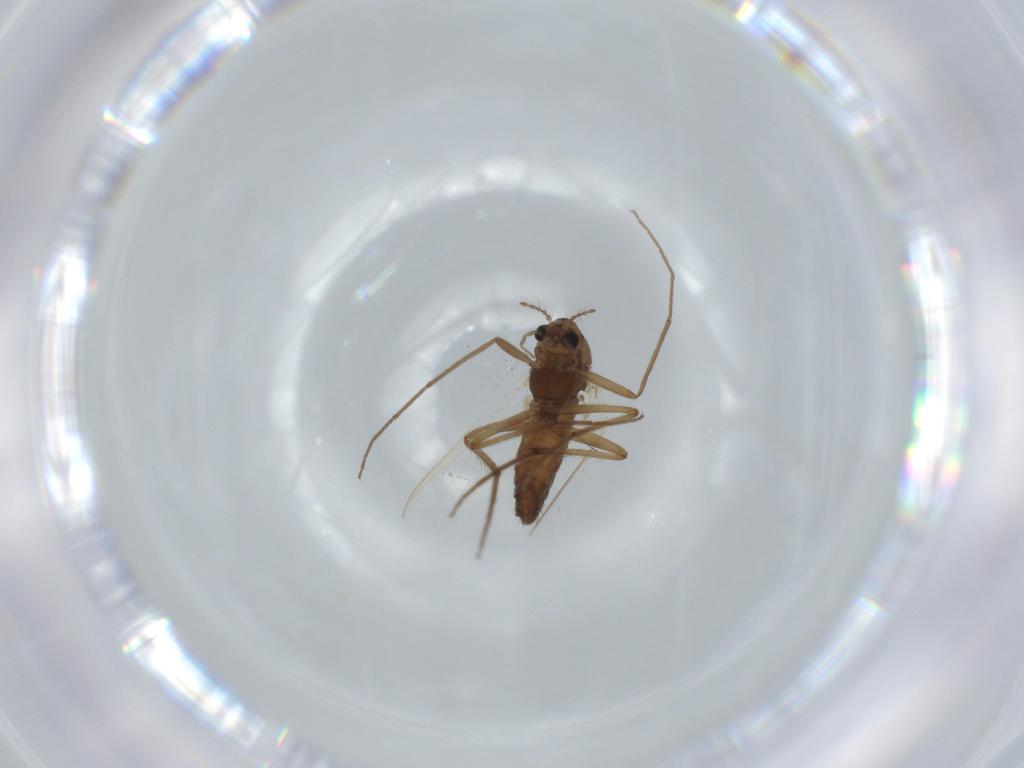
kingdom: Animalia
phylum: Arthropoda
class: Insecta
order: Diptera
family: Chironomidae
